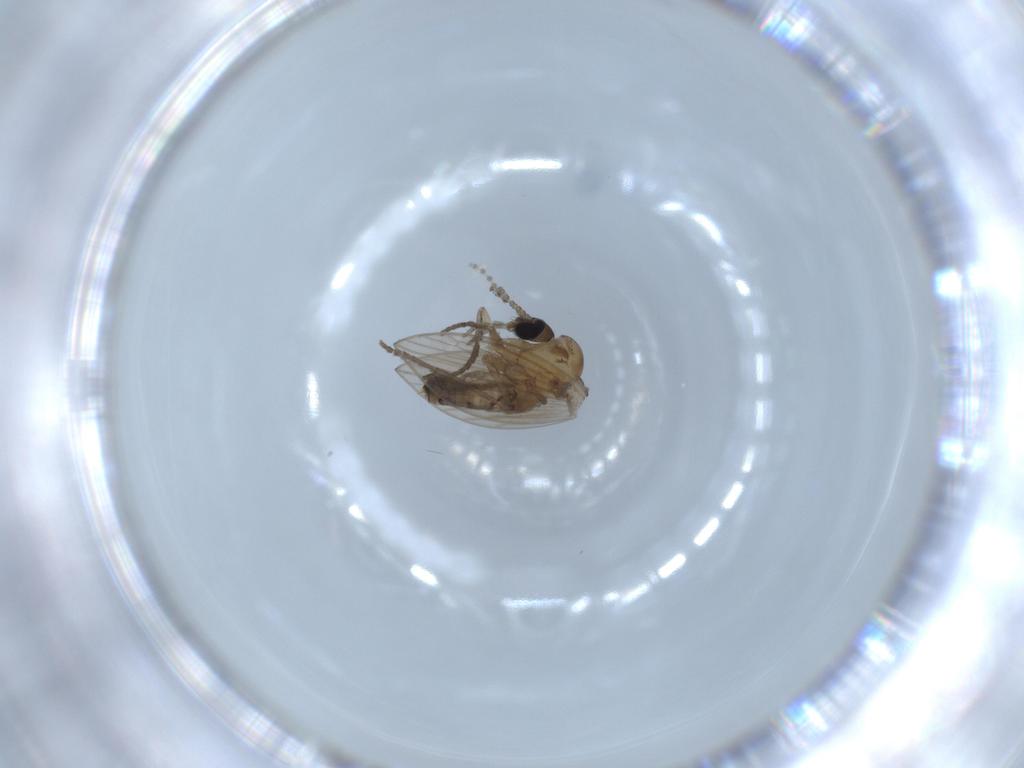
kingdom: Animalia
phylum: Arthropoda
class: Insecta
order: Diptera
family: Psychodidae
